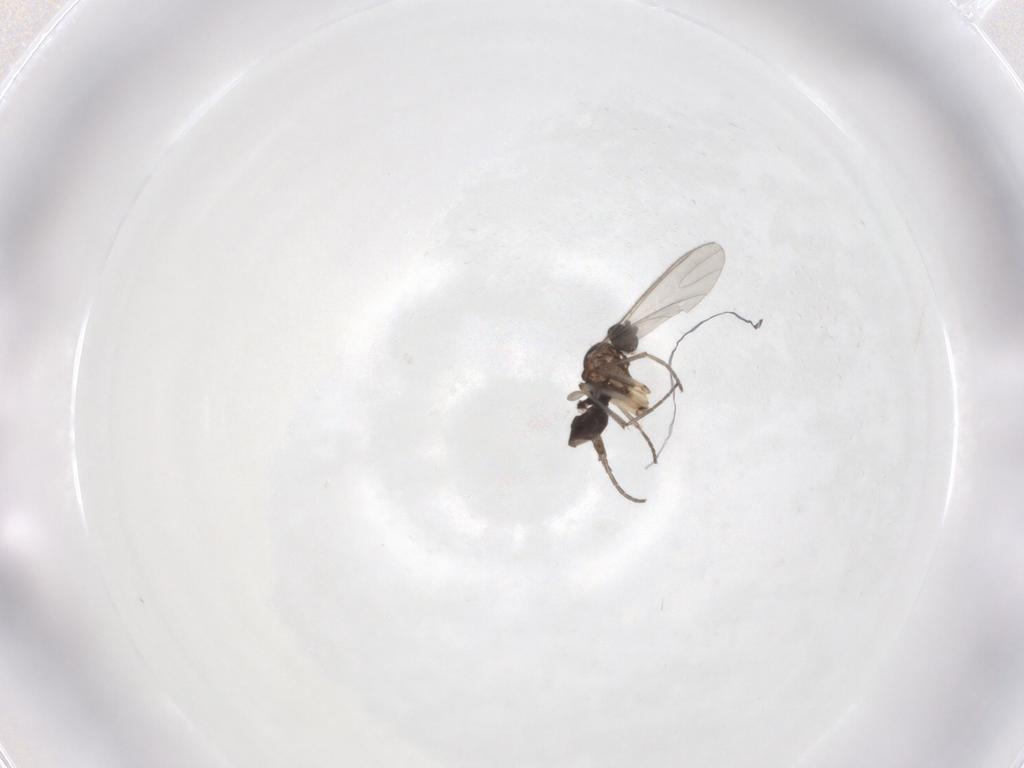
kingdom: Animalia
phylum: Arthropoda
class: Insecta
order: Diptera
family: Sciaridae
